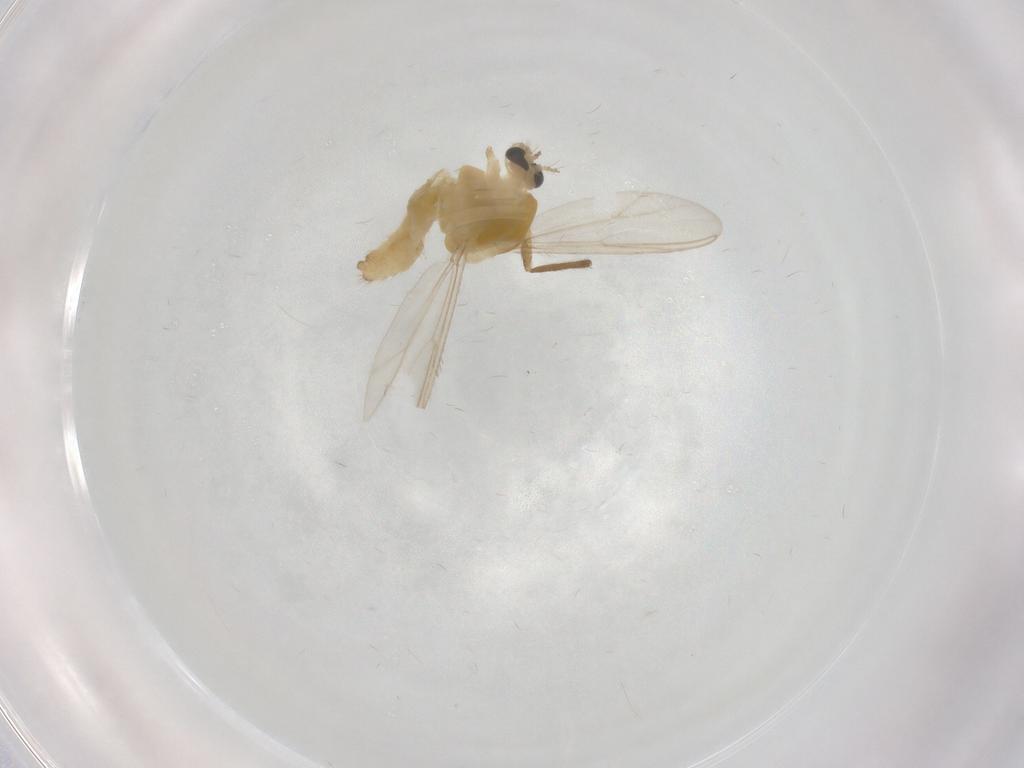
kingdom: Animalia
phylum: Arthropoda
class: Insecta
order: Diptera
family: Chironomidae
